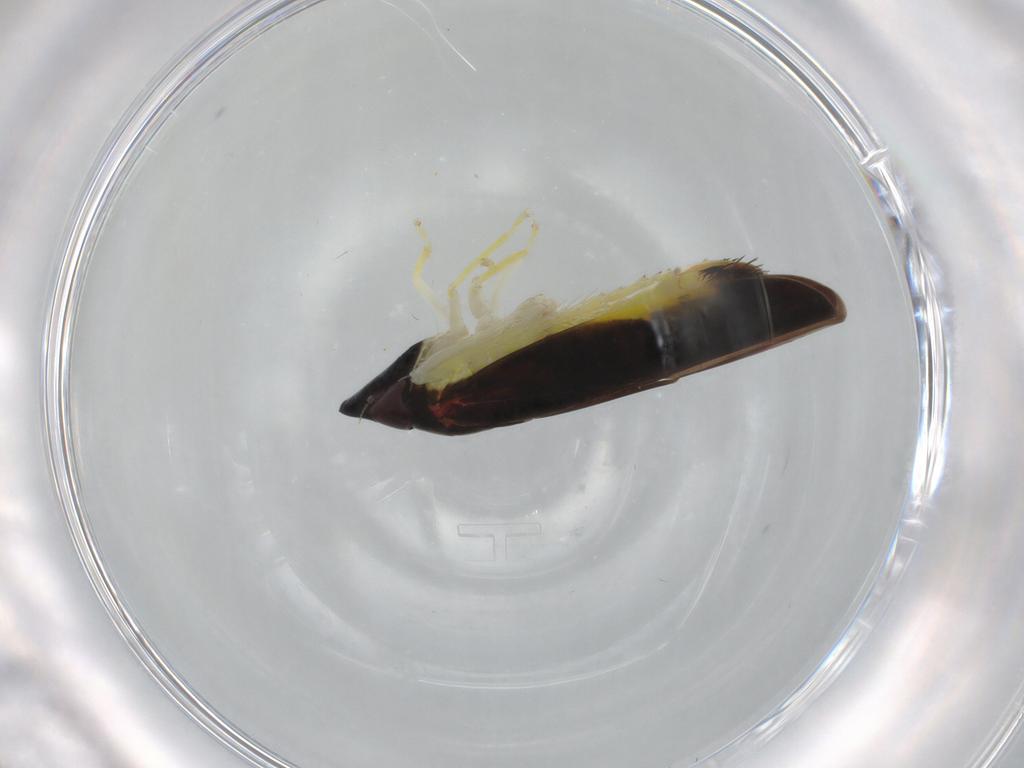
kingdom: Animalia
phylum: Arthropoda
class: Insecta
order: Hemiptera
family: Cicadellidae
